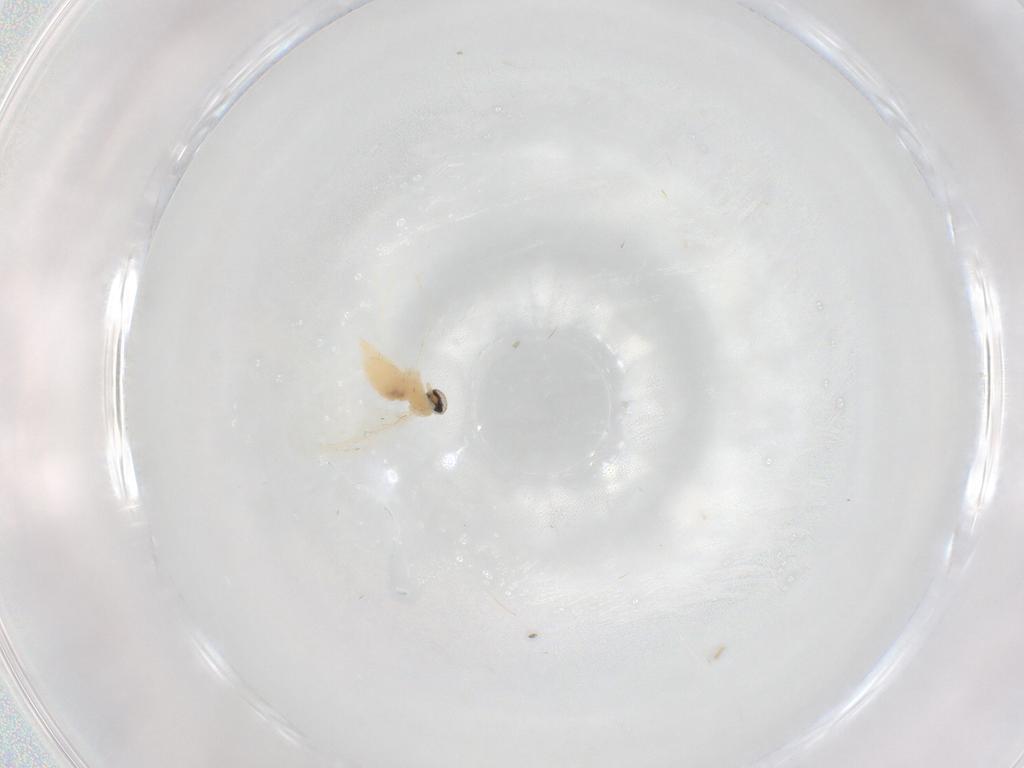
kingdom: Animalia
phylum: Arthropoda
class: Insecta
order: Diptera
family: Cecidomyiidae
